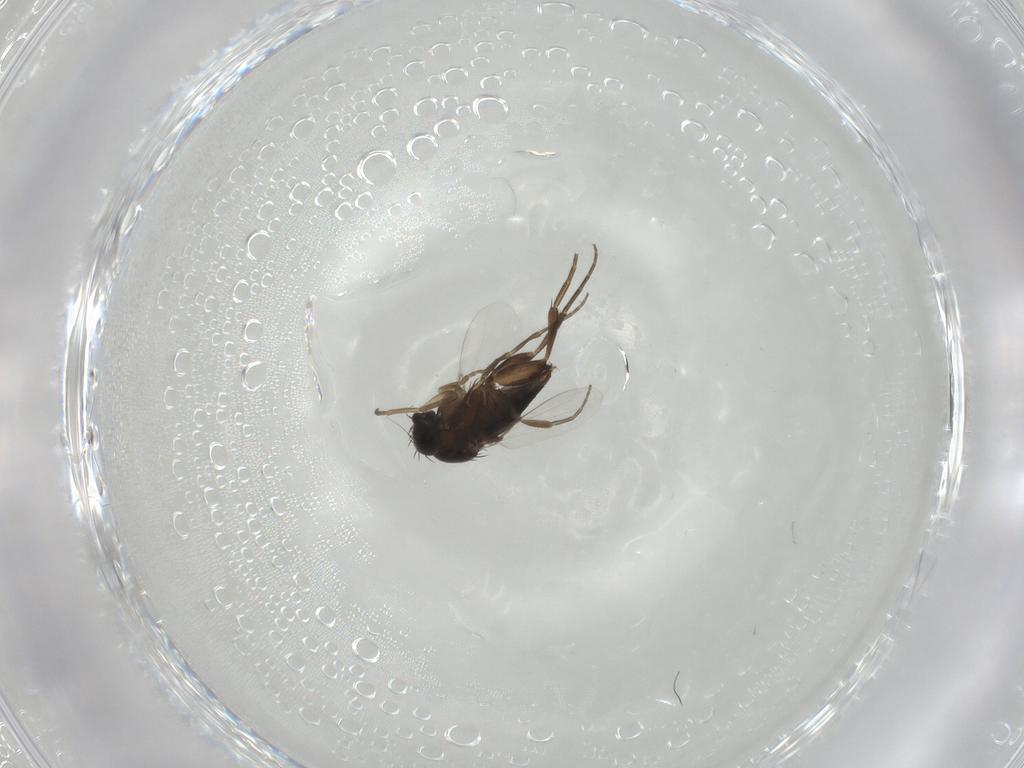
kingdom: Animalia
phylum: Arthropoda
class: Insecta
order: Diptera
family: Phoridae
